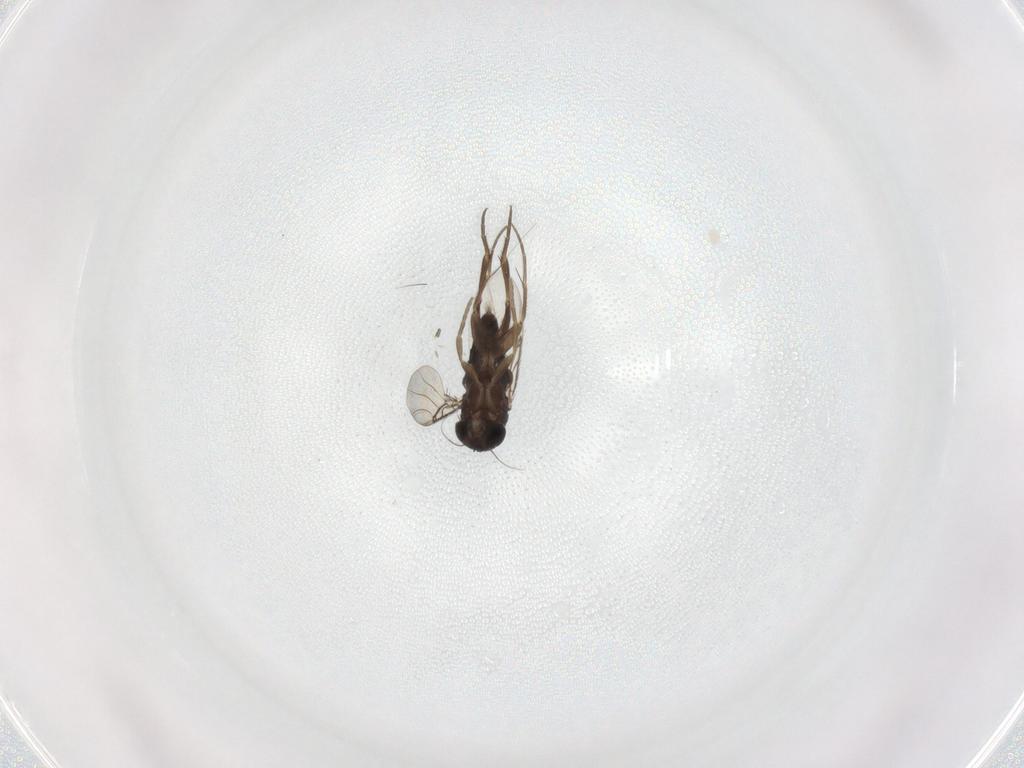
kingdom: Animalia
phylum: Arthropoda
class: Insecta
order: Diptera
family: Phoridae
